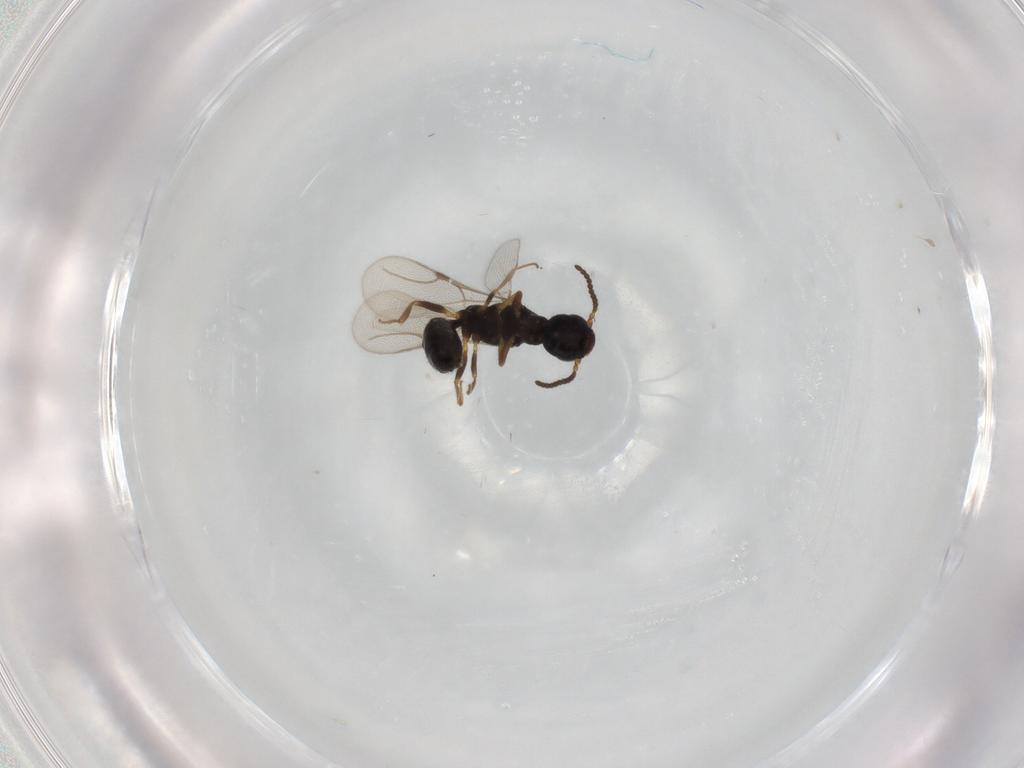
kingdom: Animalia
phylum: Arthropoda
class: Insecta
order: Hymenoptera
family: Bethylidae
